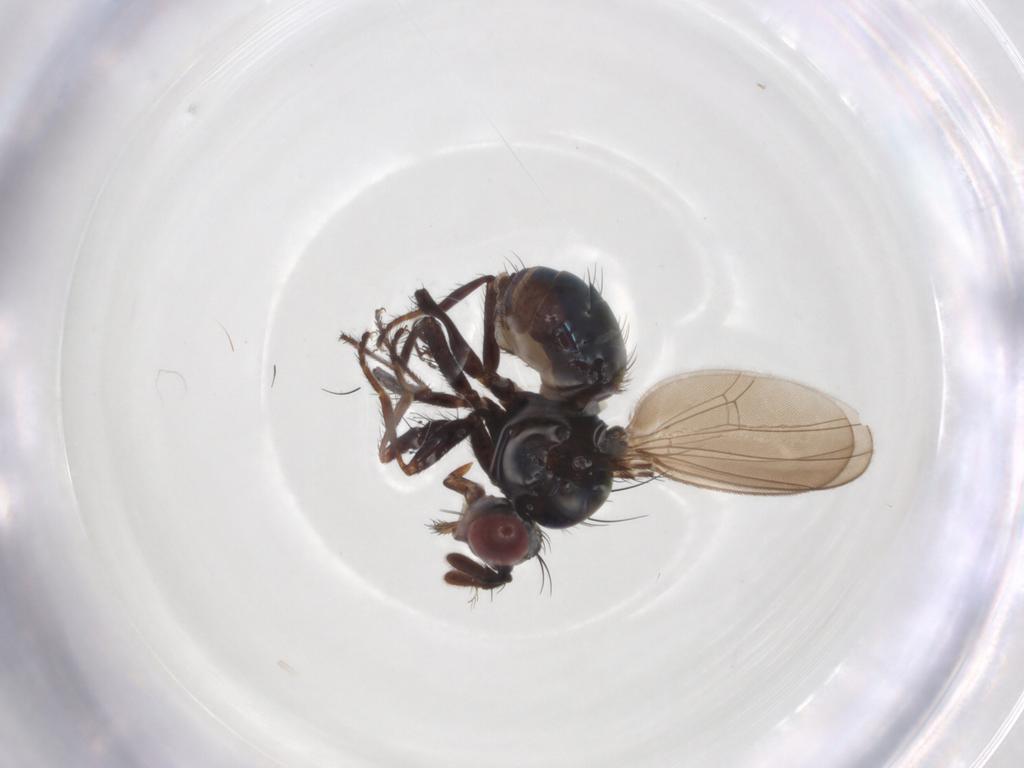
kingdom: Animalia
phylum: Arthropoda
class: Insecta
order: Diptera
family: Ephydridae
